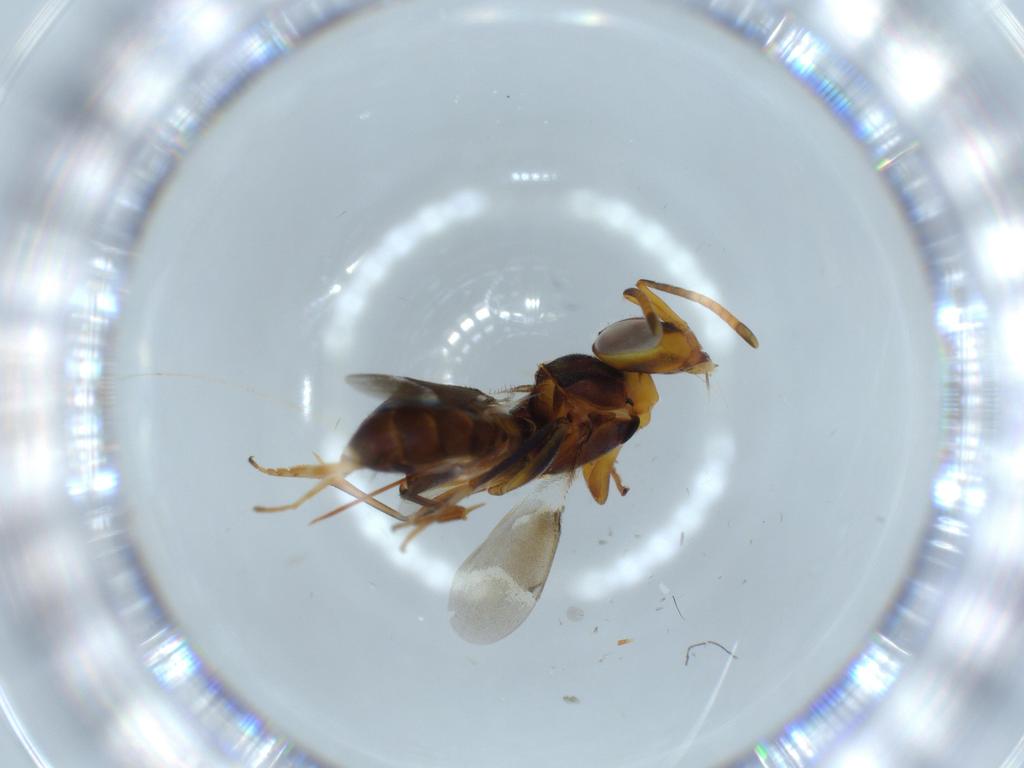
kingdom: Animalia
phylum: Arthropoda
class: Insecta
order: Hymenoptera
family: Eupelmidae
